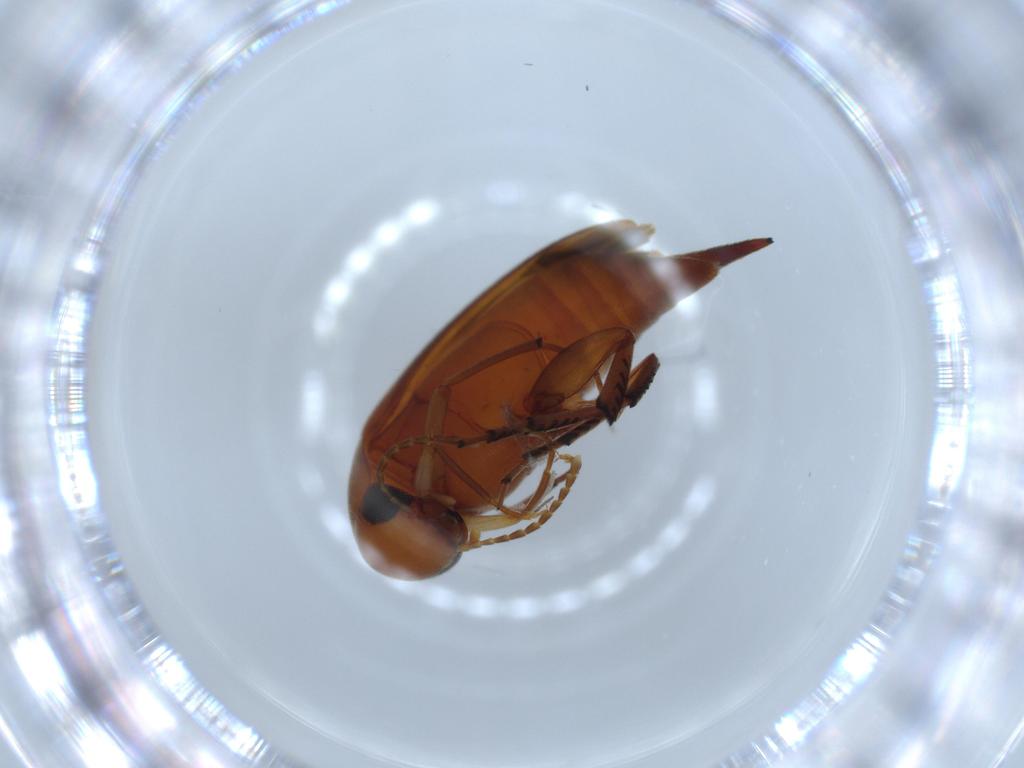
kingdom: Animalia
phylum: Arthropoda
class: Insecta
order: Coleoptera
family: Mordellidae
